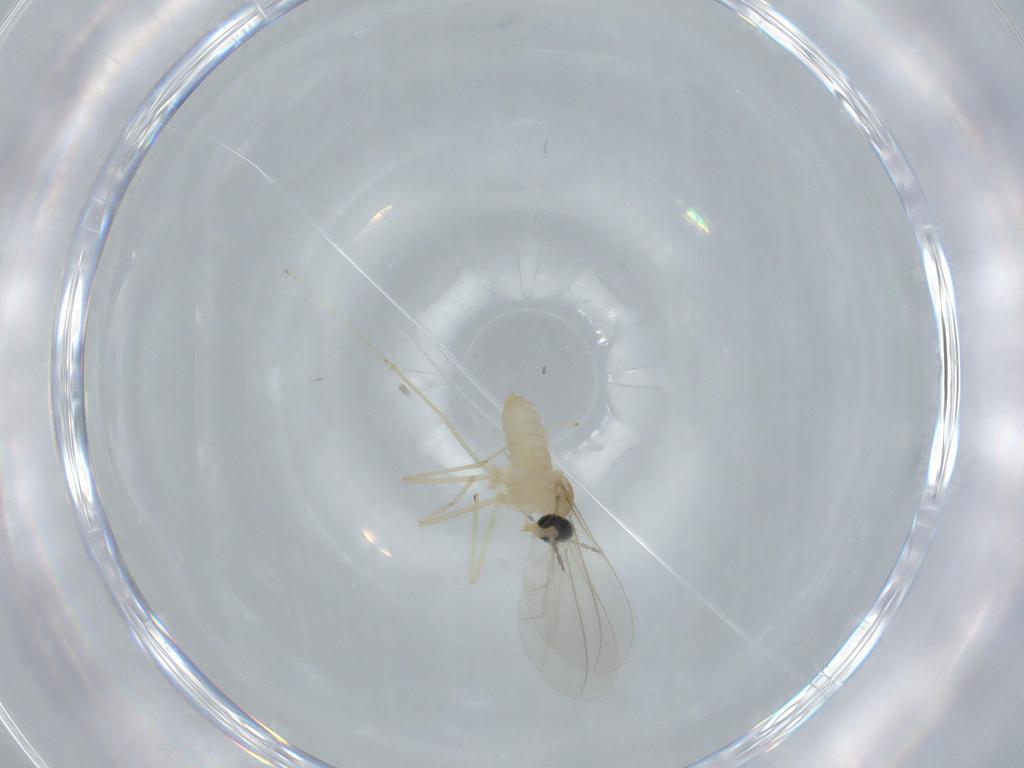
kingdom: Animalia
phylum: Arthropoda
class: Insecta
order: Diptera
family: Cecidomyiidae
